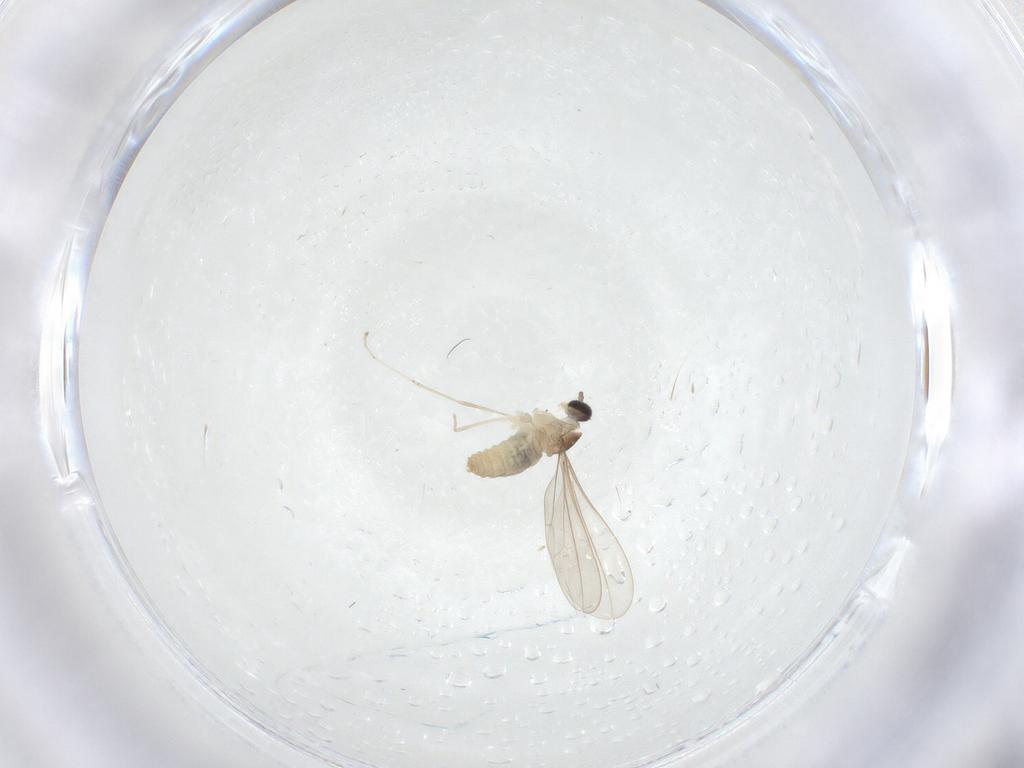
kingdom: Animalia
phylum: Arthropoda
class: Insecta
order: Diptera
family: Cecidomyiidae
